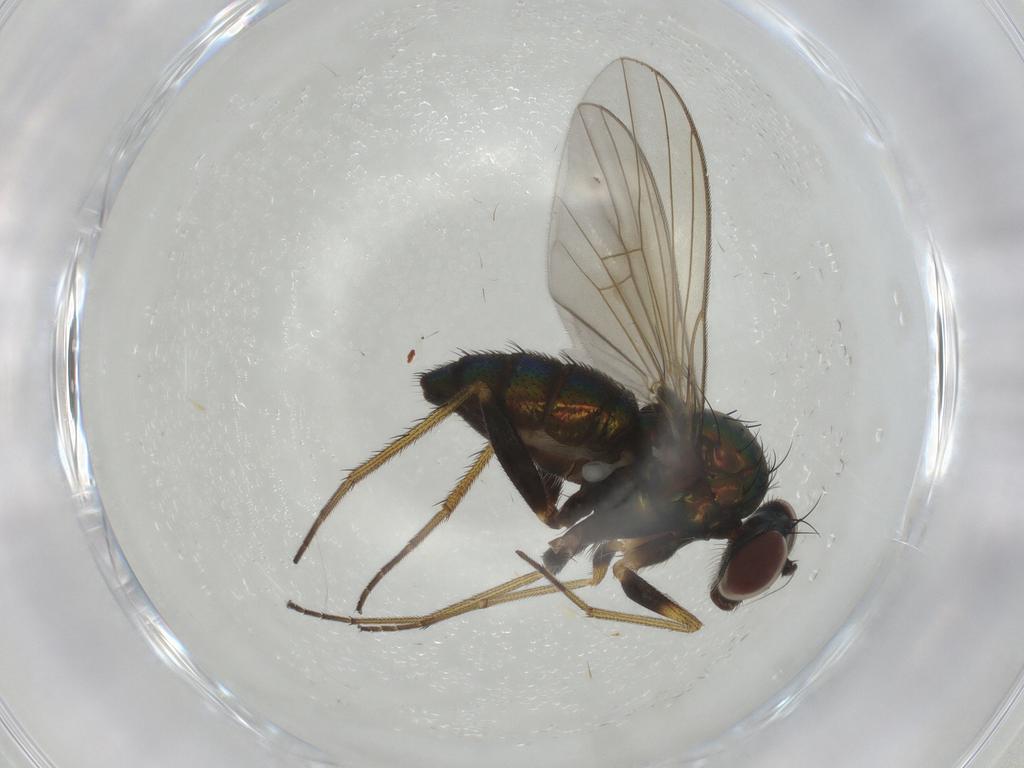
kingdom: Animalia
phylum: Arthropoda
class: Insecta
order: Diptera
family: Dolichopodidae
